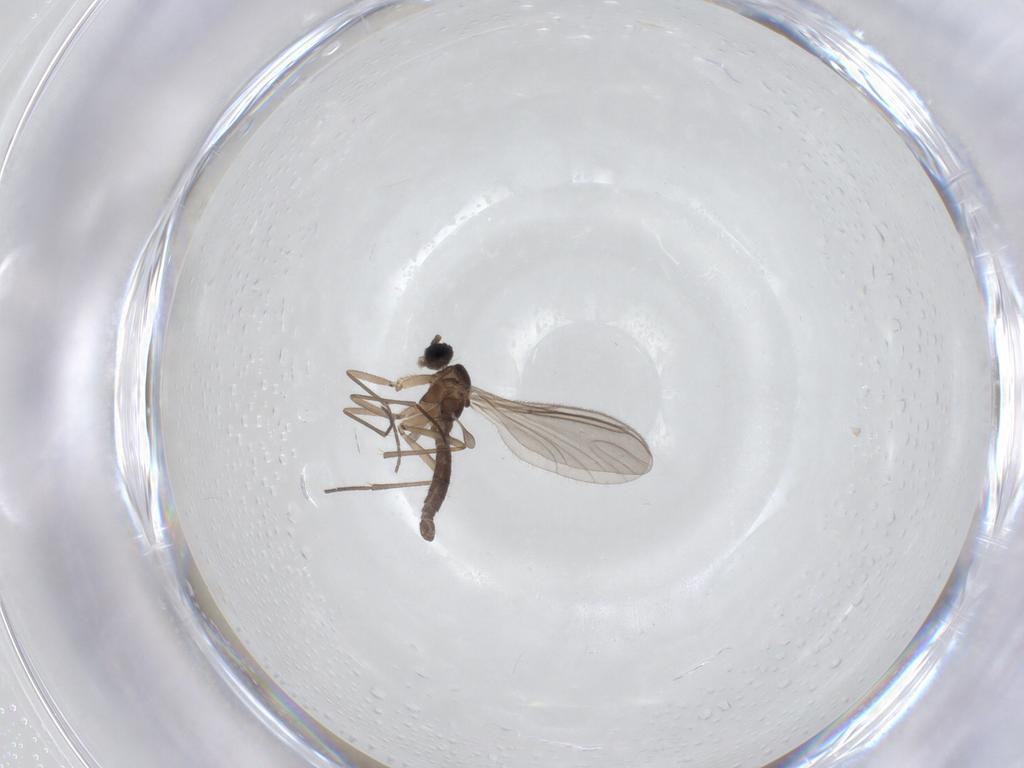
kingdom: Animalia
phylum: Arthropoda
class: Insecta
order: Diptera
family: Sciaridae
